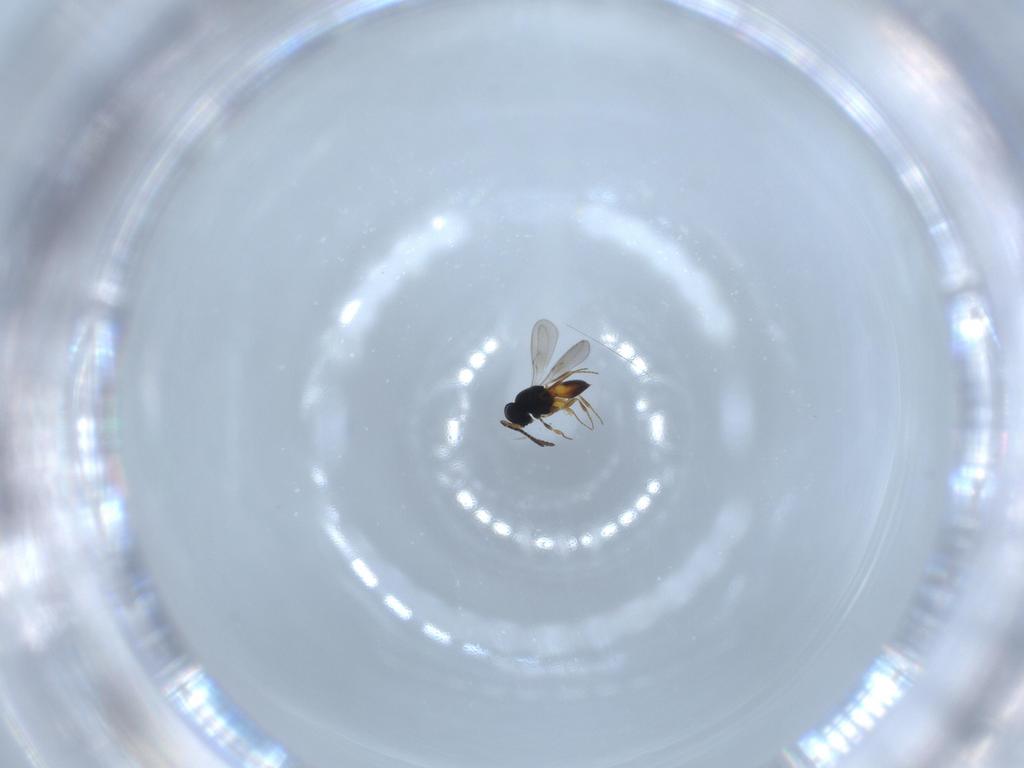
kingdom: Animalia
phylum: Arthropoda
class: Insecta
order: Hymenoptera
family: Scelionidae
